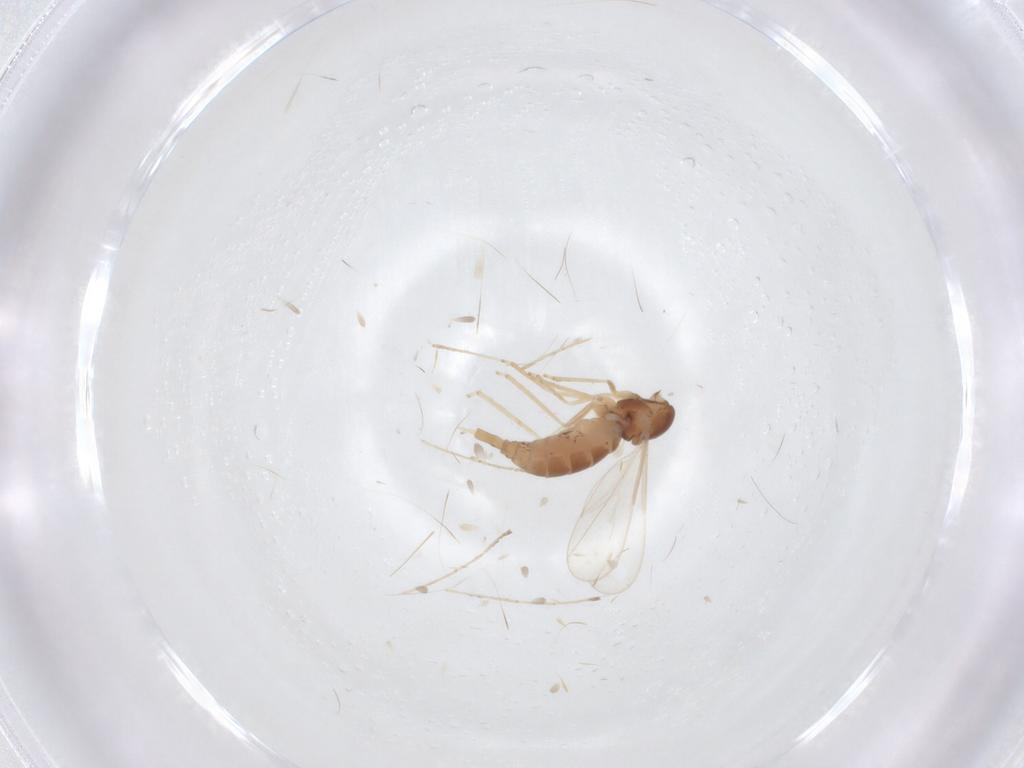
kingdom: Animalia
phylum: Arthropoda
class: Insecta
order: Diptera
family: Cecidomyiidae
